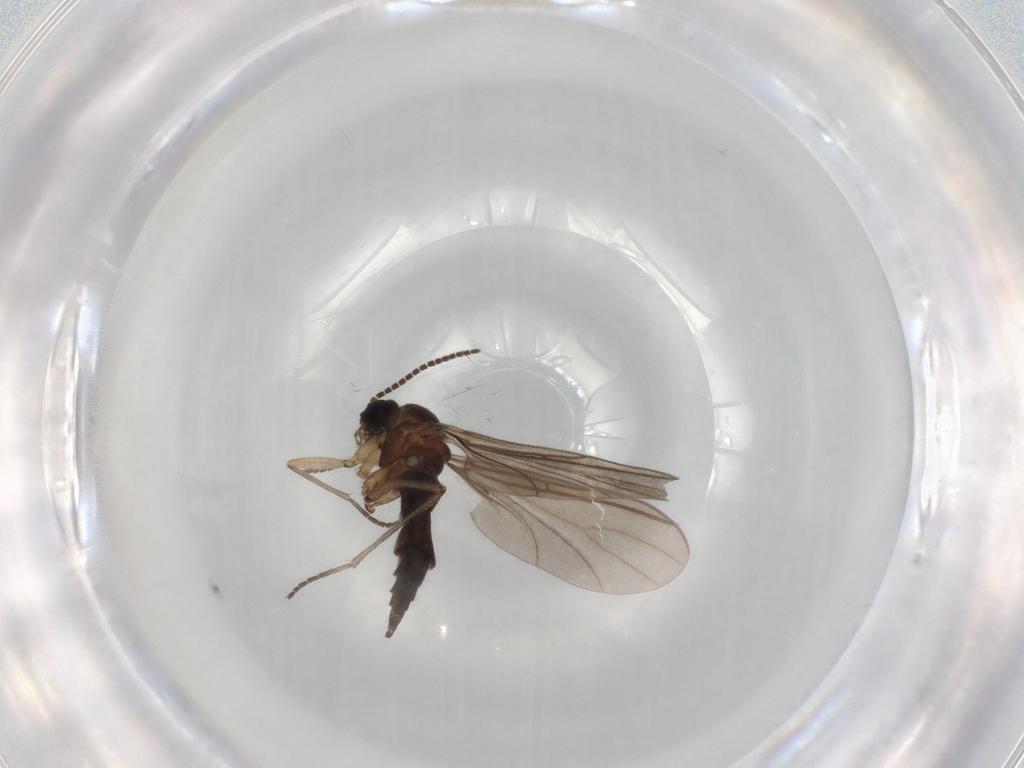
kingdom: Animalia
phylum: Arthropoda
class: Insecta
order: Diptera
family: Sciaridae
